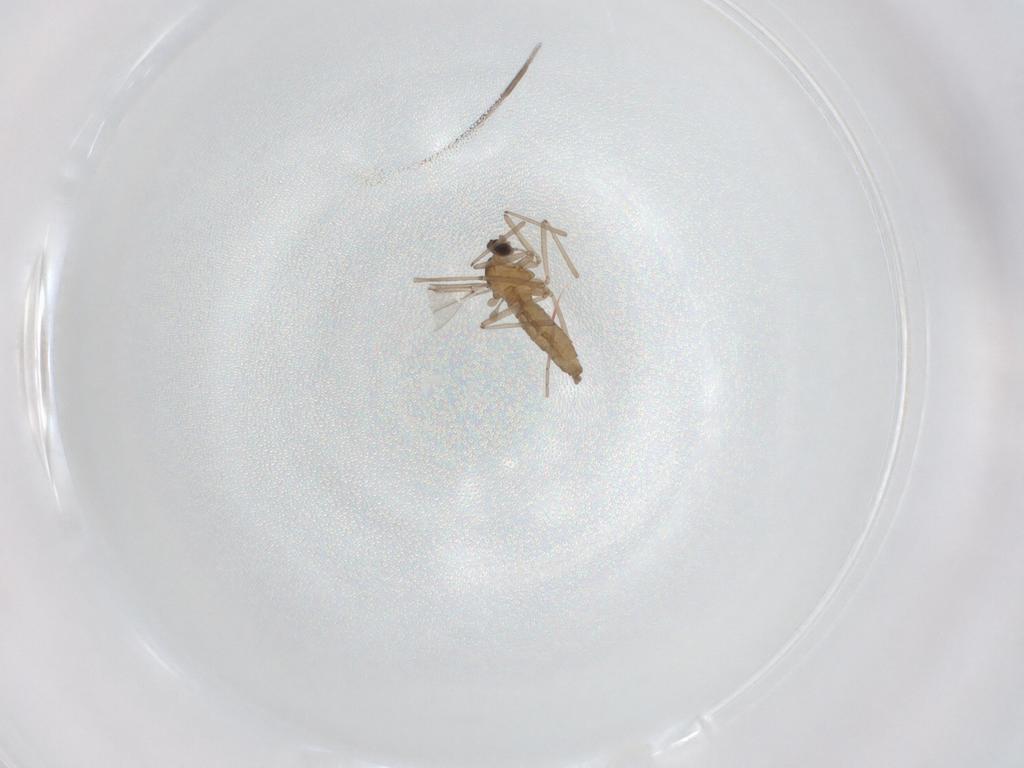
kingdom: Animalia
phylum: Arthropoda
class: Insecta
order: Diptera
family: Cecidomyiidae
